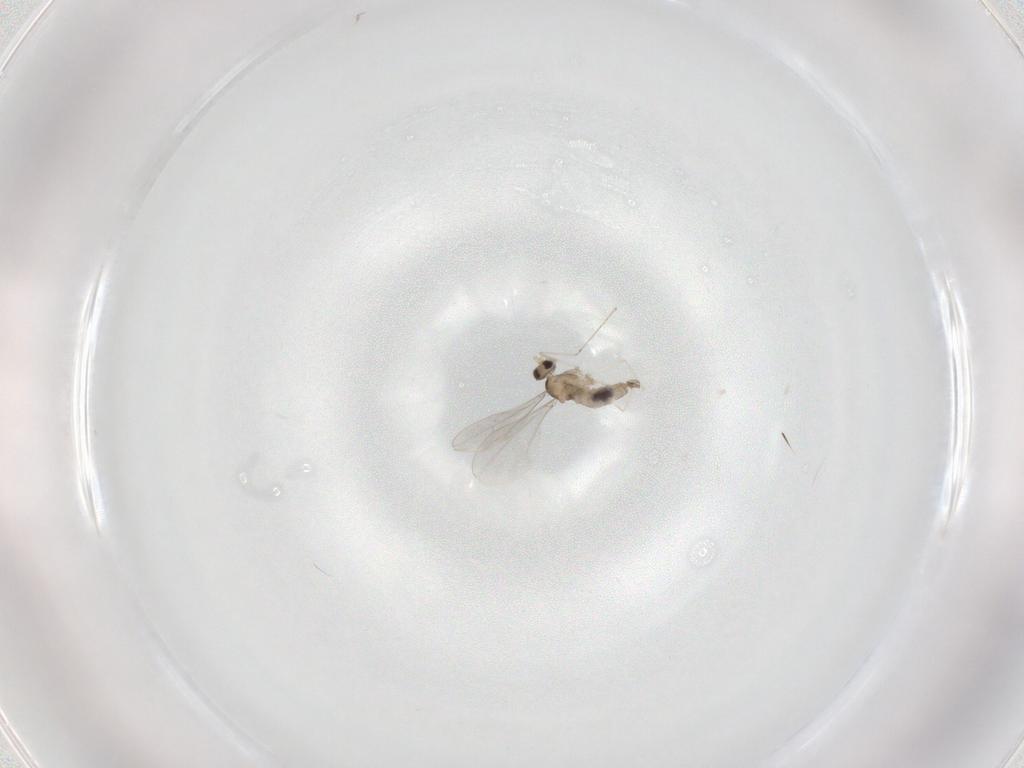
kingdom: Animalia
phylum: Arthropoda
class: Insecta
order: Diptera
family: Cecidomyiidae
